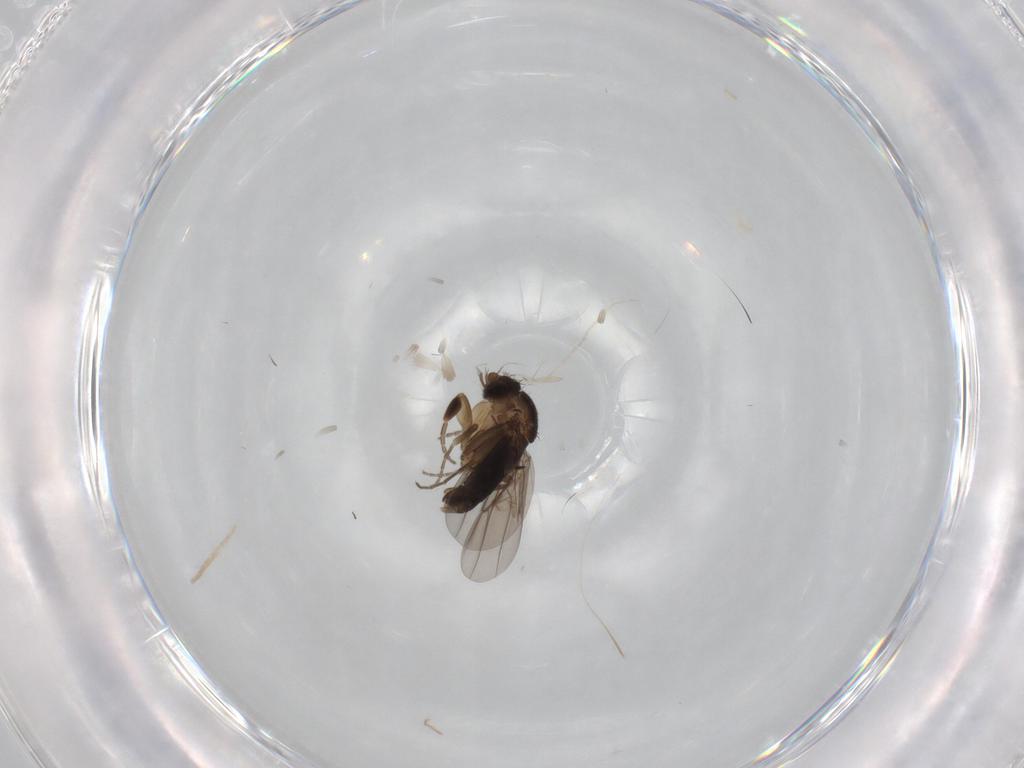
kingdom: Animalia
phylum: Arthropoda
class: Insecta
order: Diptera
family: Phoridae
